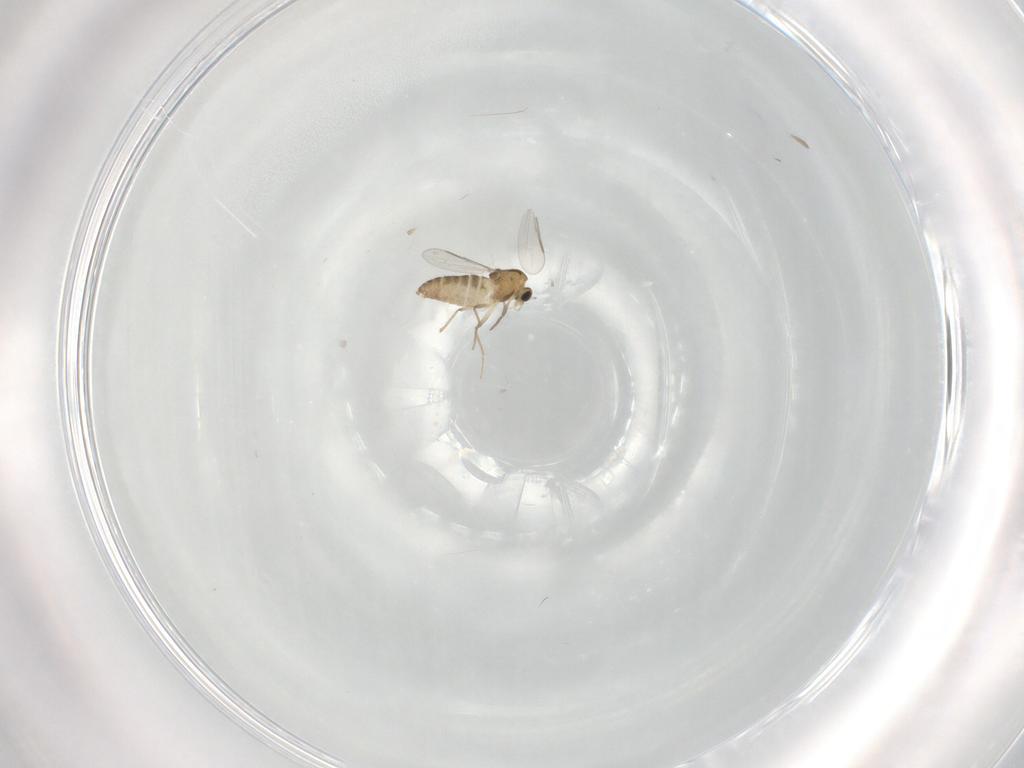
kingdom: Animalia
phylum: Arthropoda
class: Insecta
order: Diptera
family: Chironomidae
